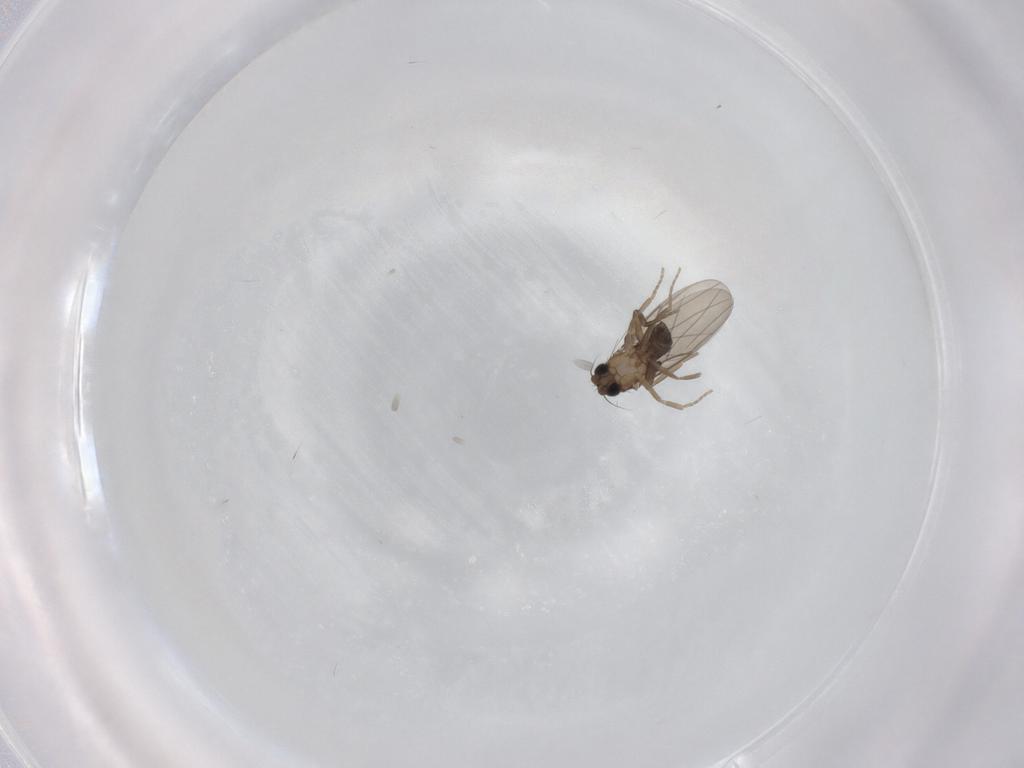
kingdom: Animalia
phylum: Arthropoda
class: Insecta
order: Diptera
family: Phoridae
